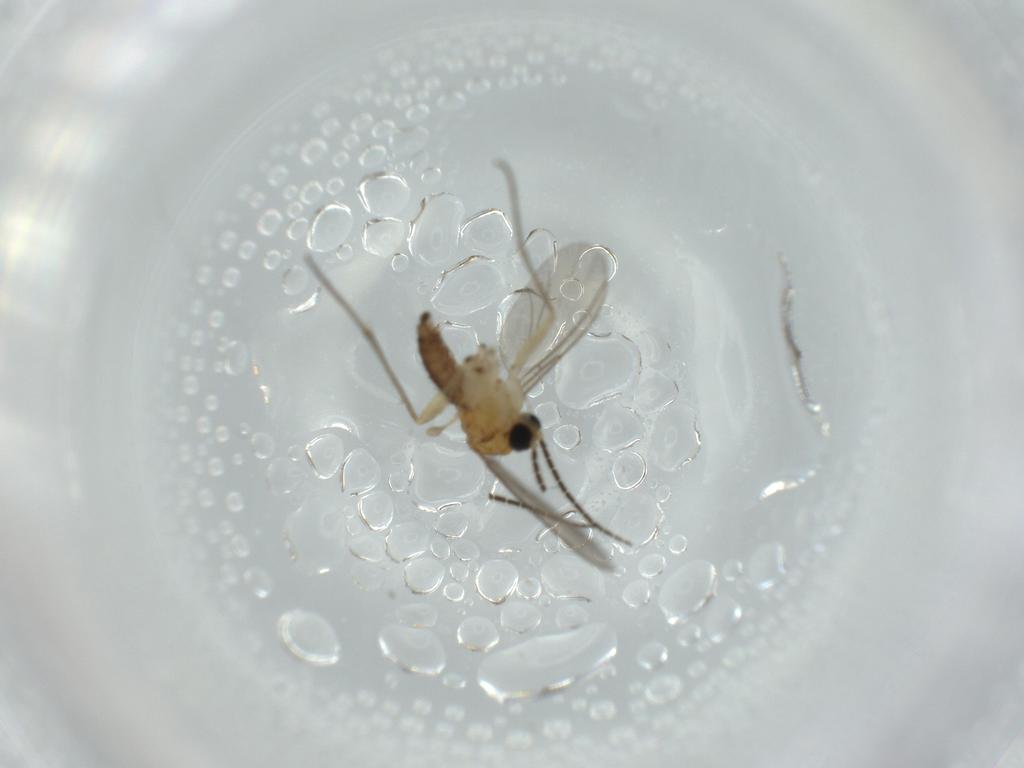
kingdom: Animalia
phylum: Arthropoda
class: Insecta
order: Diptera
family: Sciaridae
